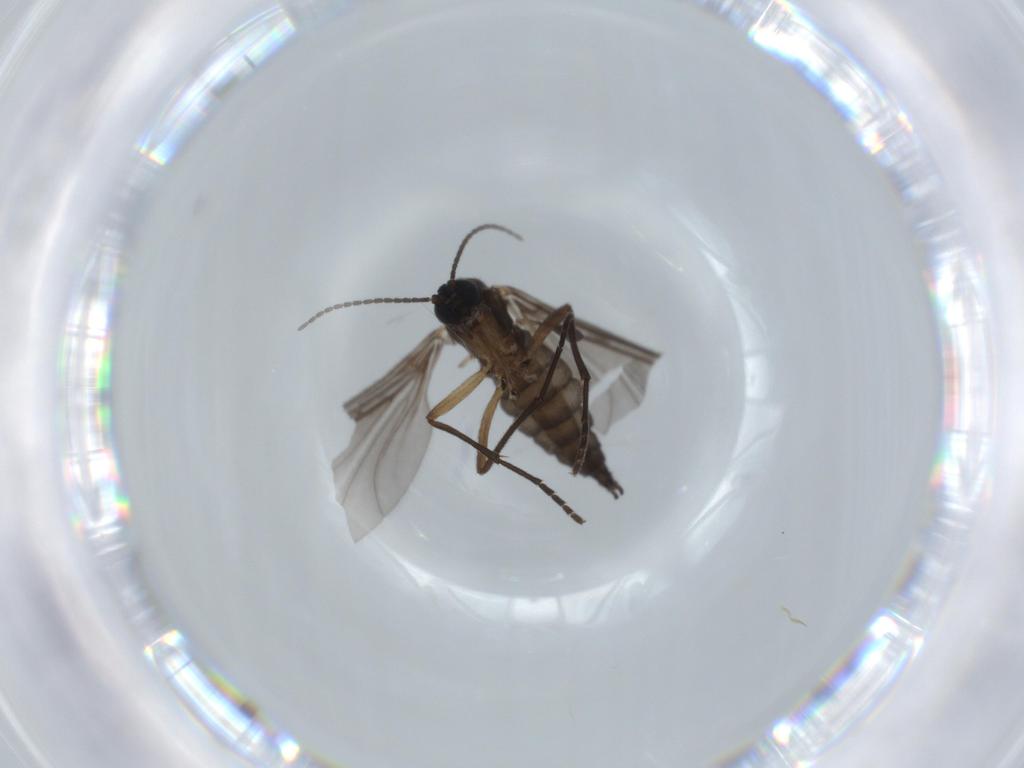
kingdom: Animalia
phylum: Arthropoda
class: Insecta
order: Diptera
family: Sciaridae
